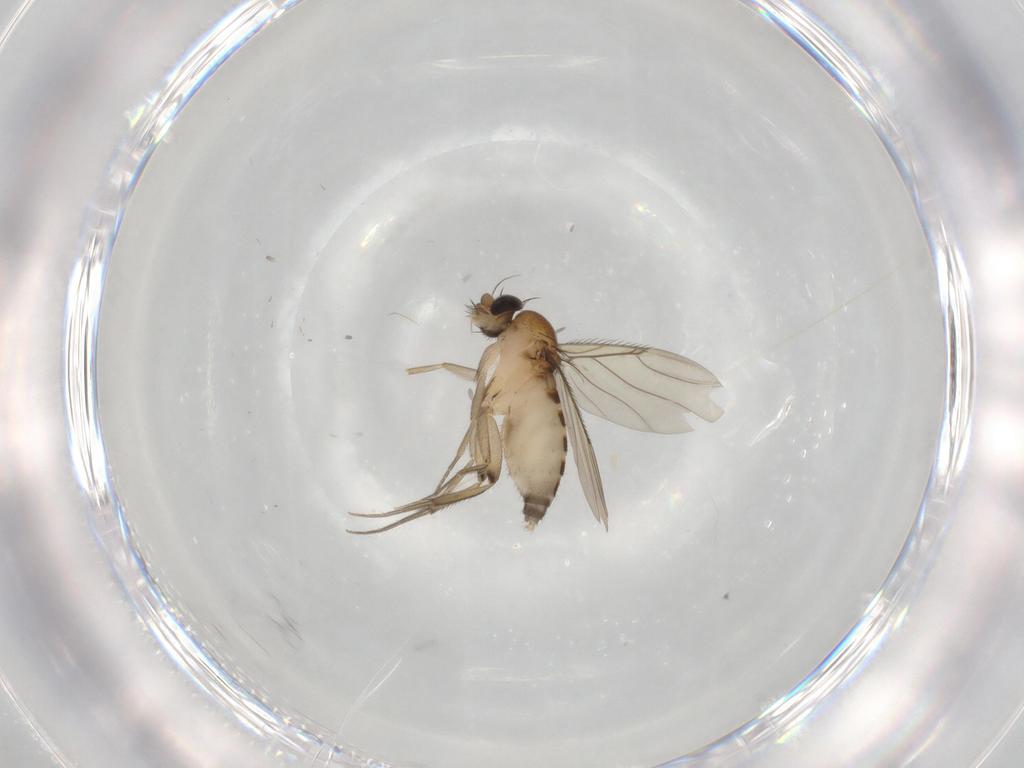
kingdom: Animalia
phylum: Arthropoda
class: Insecta
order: Diptera
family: Phoridae
